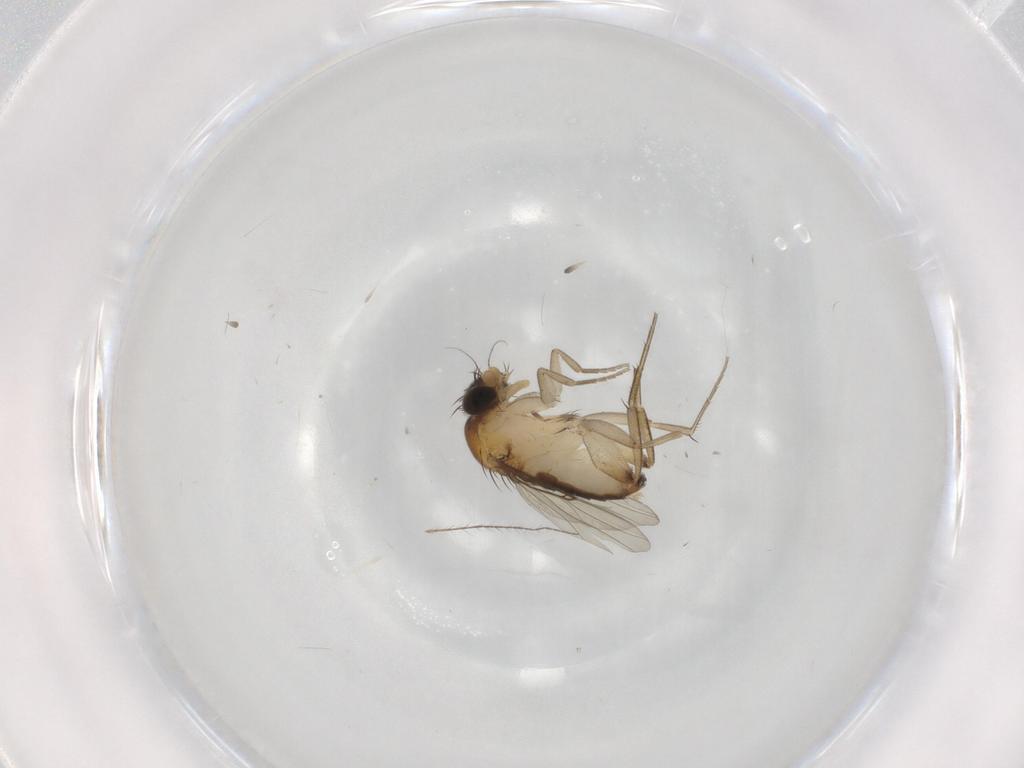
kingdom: Animalia
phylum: Arthropoda
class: Insecta
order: Diptera
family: Phoridae
